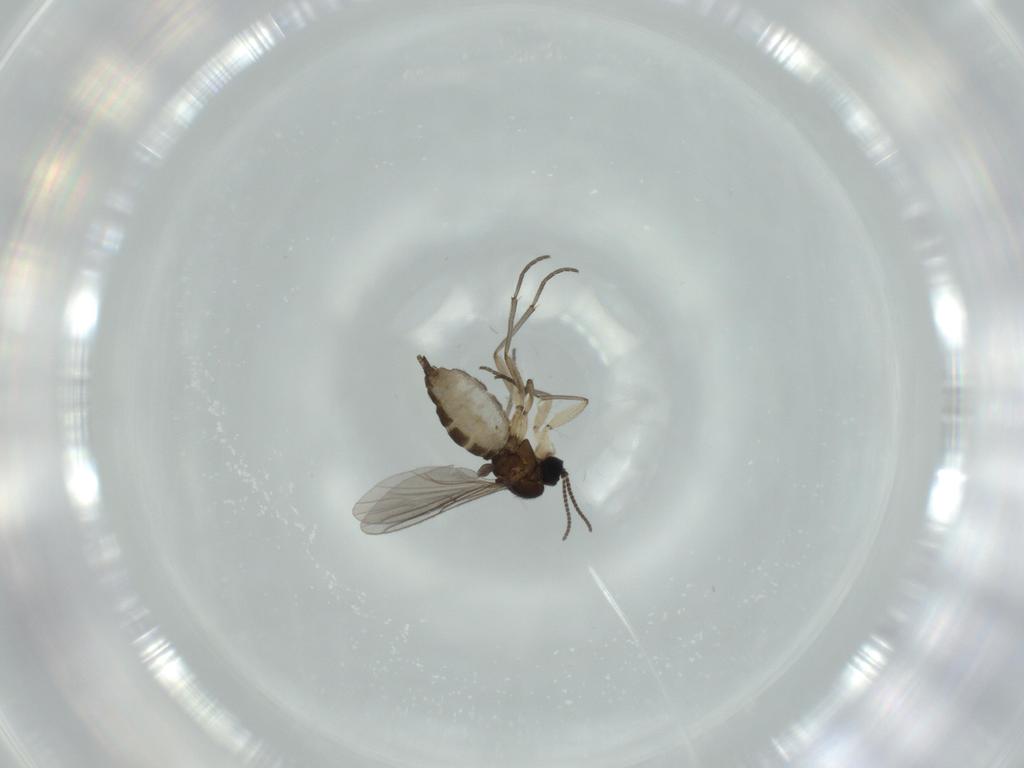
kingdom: Animalia
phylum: Arthropoda
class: Insecta
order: Diptera
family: Sciaridae
